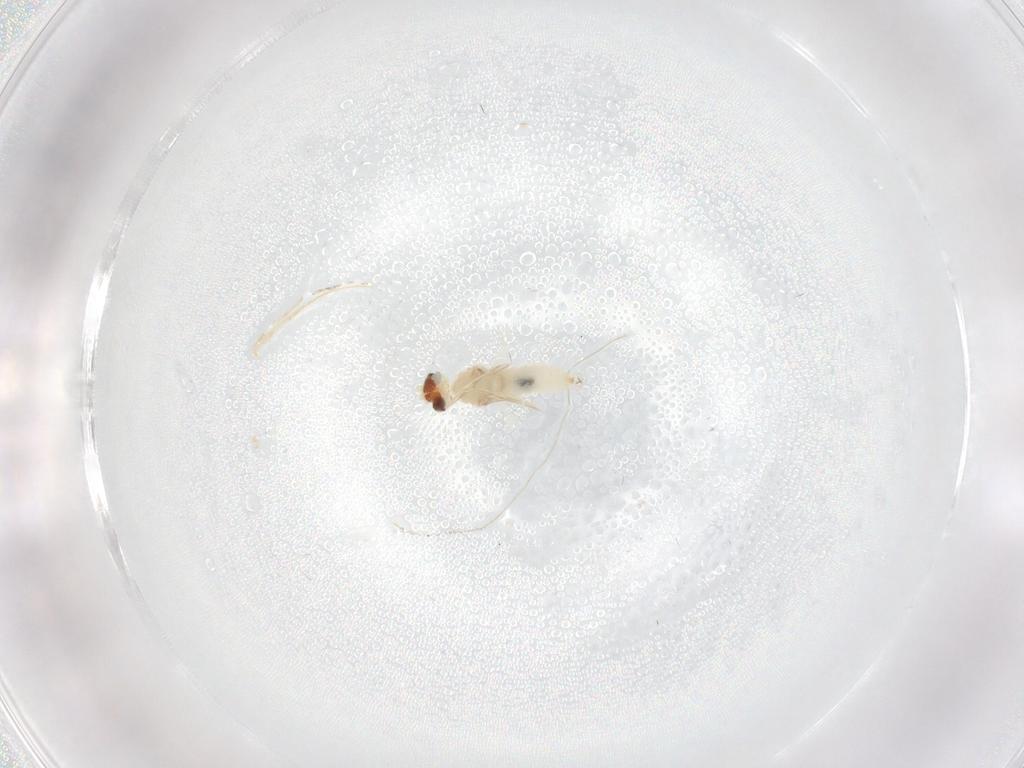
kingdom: Animalia
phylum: Arthropoda
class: Insecta
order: Diptera
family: Cecidomyiidae
